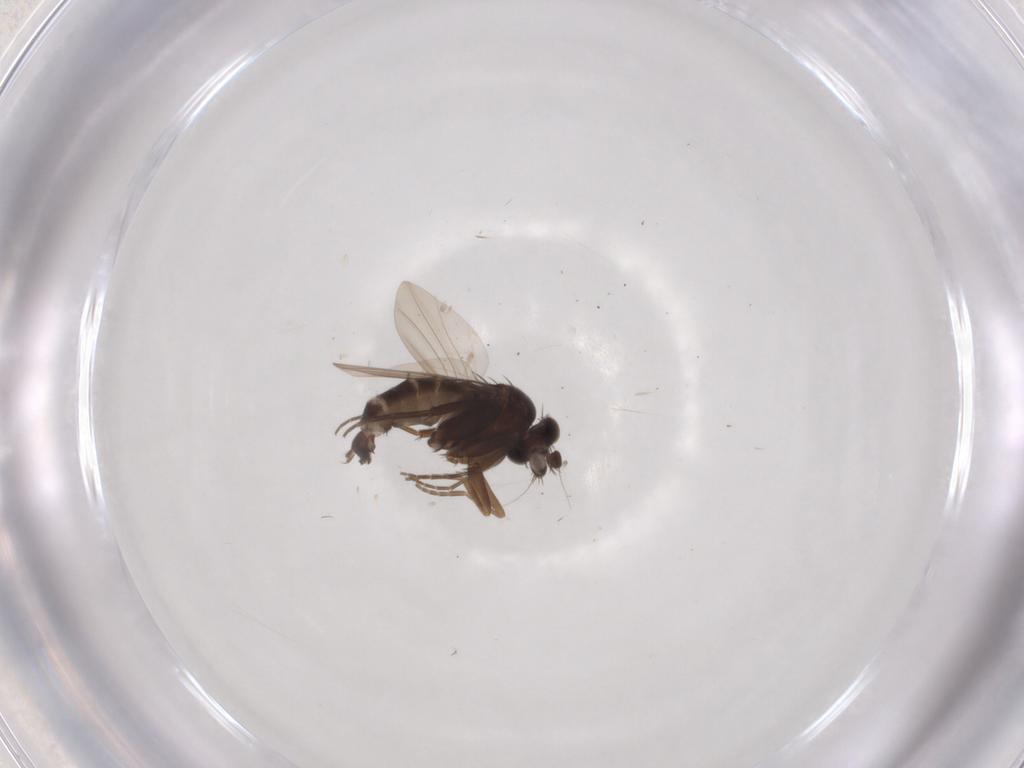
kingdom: Animalia
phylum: Arthropoda
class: Insecta
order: Diptera
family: Phoridae
